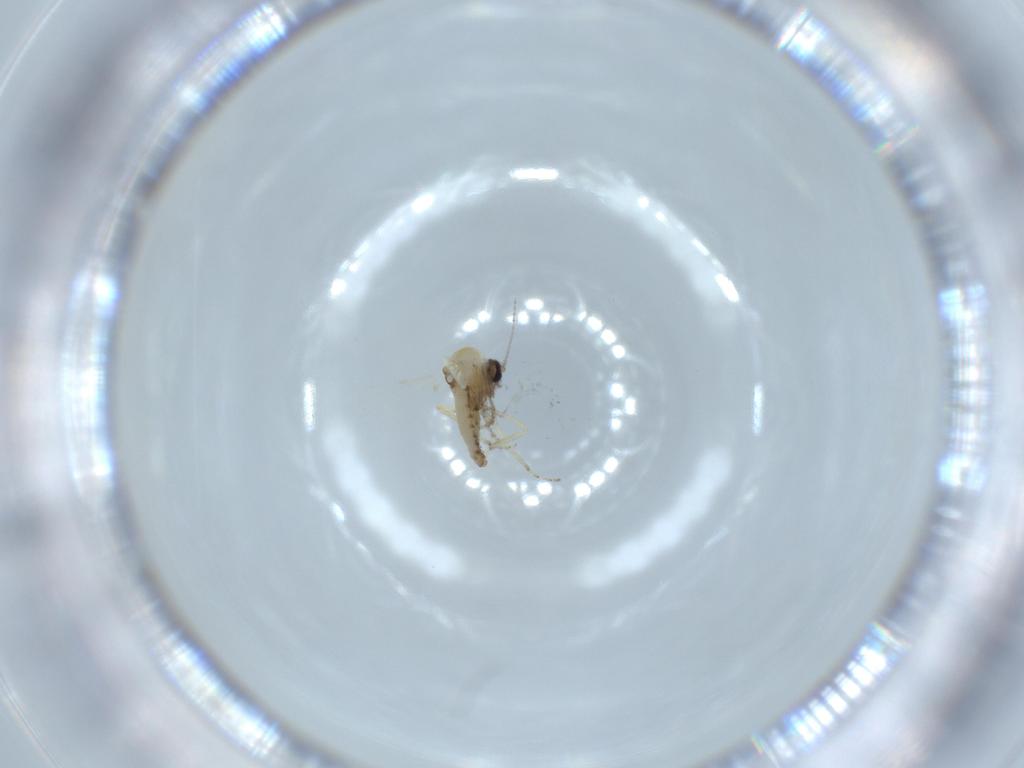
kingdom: Animalia
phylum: Arthropoda
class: Insecta
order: Diptera
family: Ceratopogonidae
